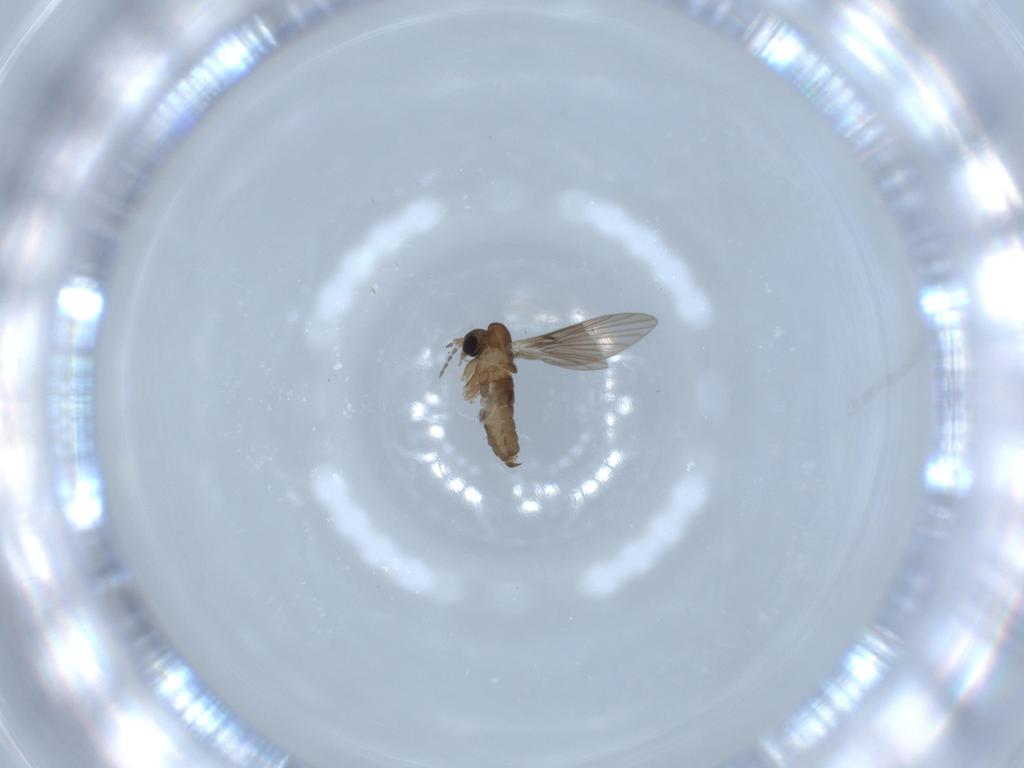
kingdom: Animalia
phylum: Arthropoda
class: Insecta
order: Diptera
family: Psychodidae
